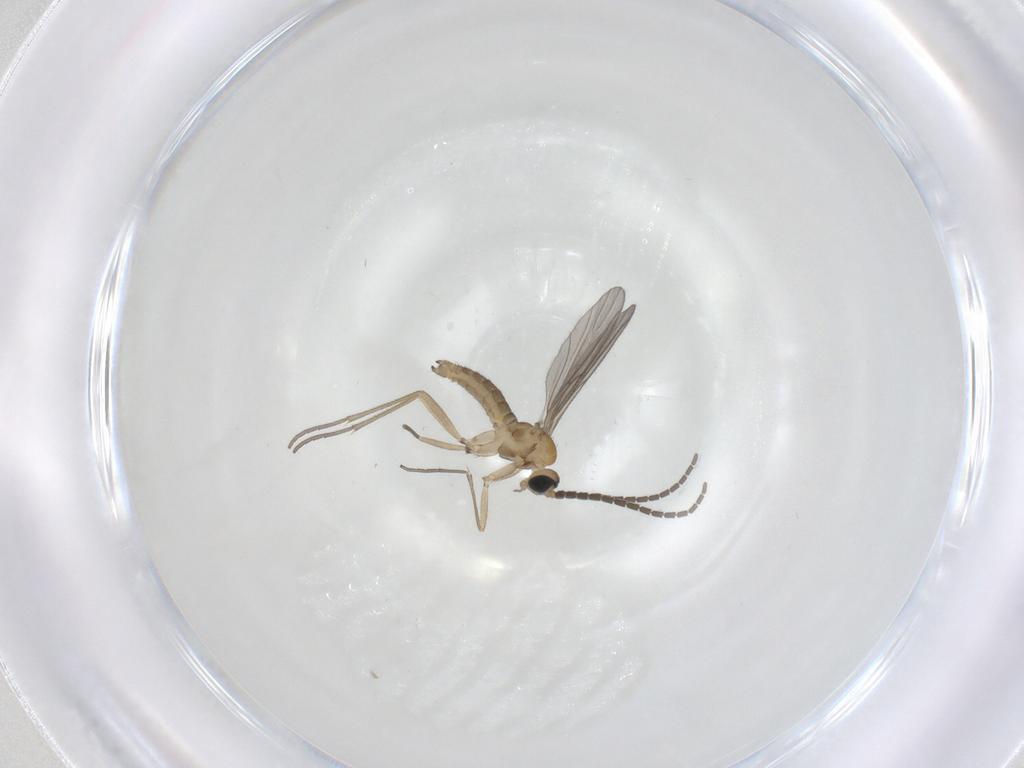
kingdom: Animalia
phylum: Arthropoda
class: Insecta
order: Diptera
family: Sciaridae
